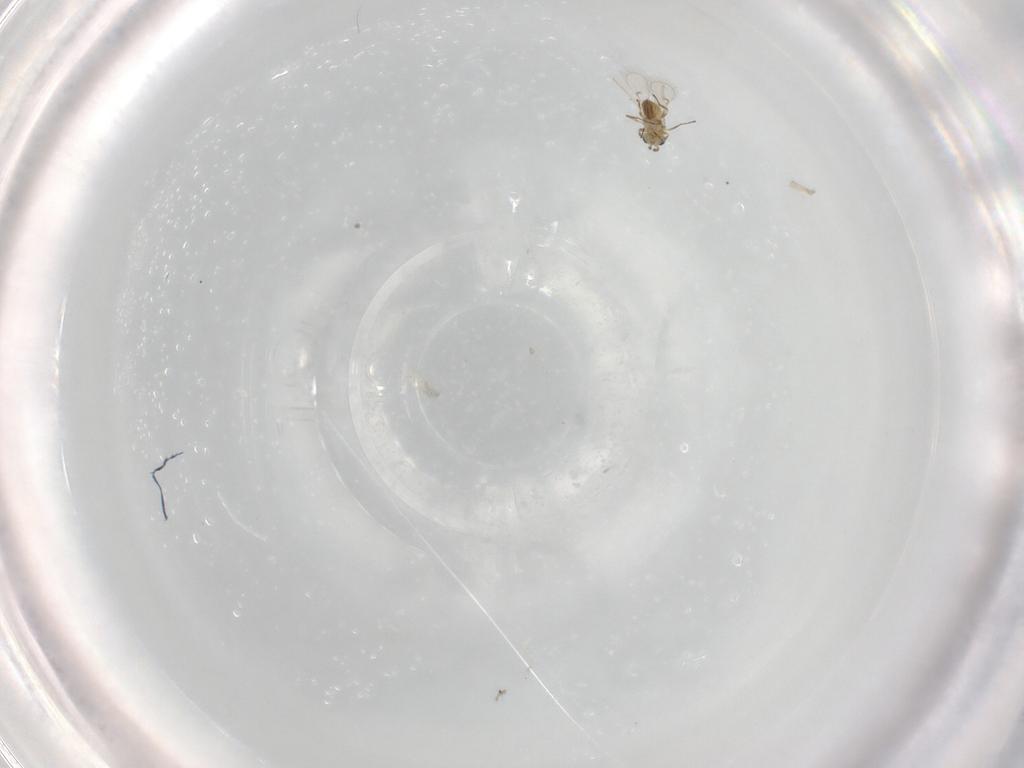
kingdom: Animalia
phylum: Arthropoda
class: Insecta
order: Hymenoptera
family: Trichogrammatidae
